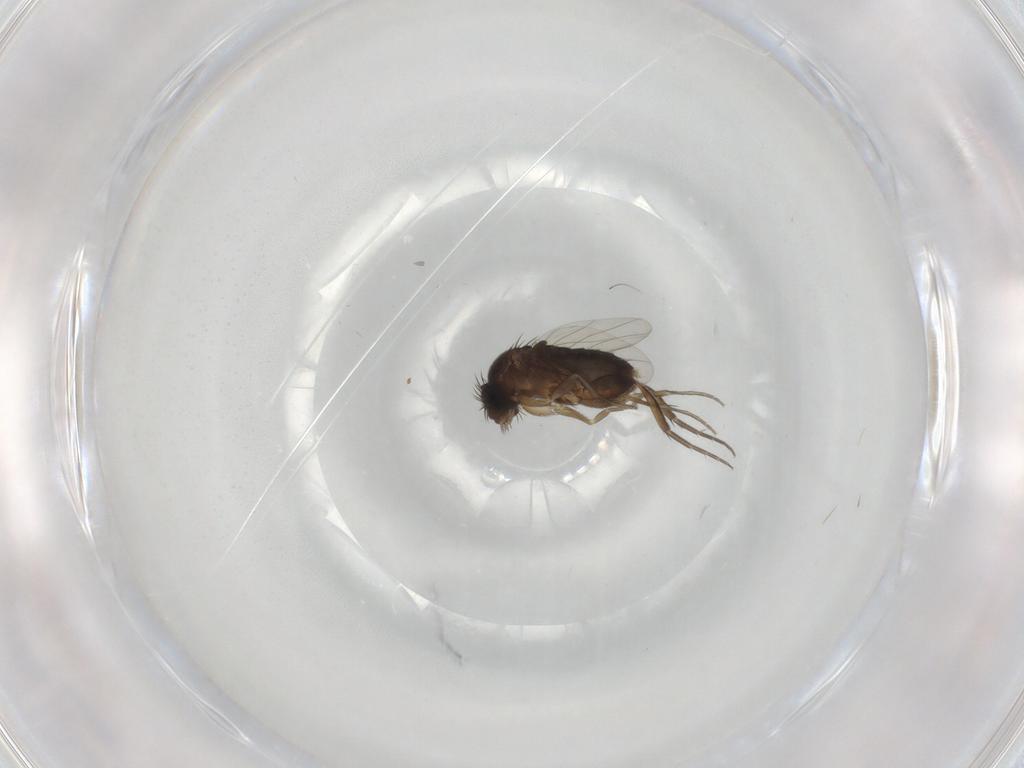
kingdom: Animalia
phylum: Arthropoda
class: Insecta
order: Diptera
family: Phoridae
